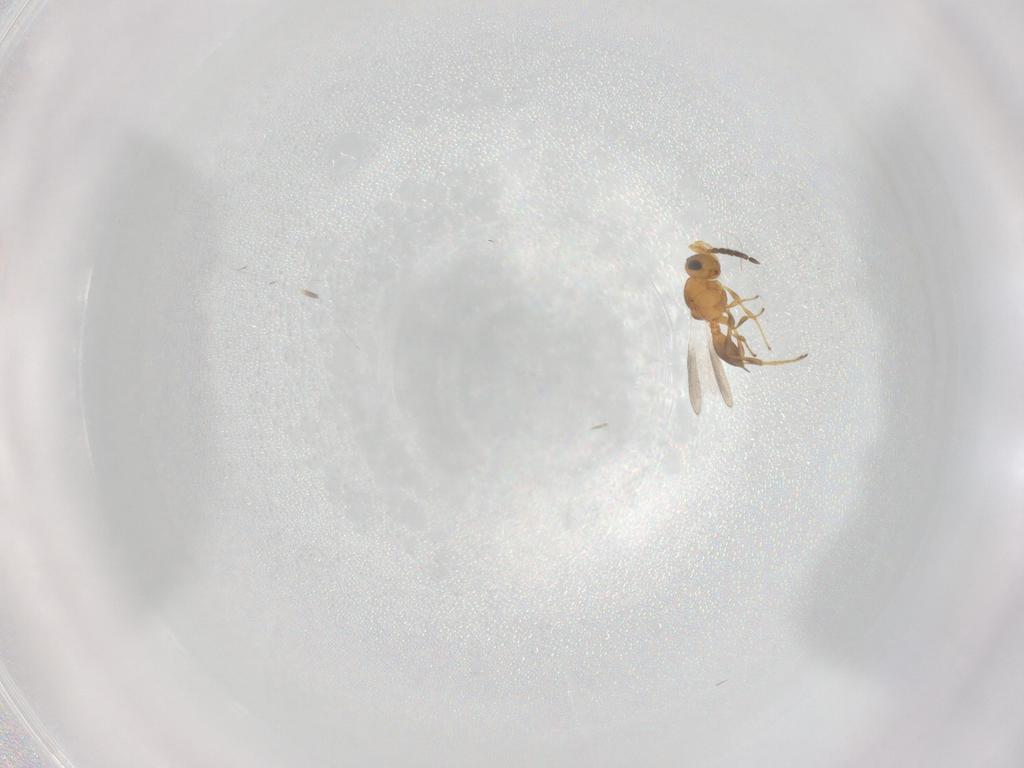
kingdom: Animalia
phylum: Arthropoda
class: Insecta
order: Hymenoptera
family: Platygastridae
